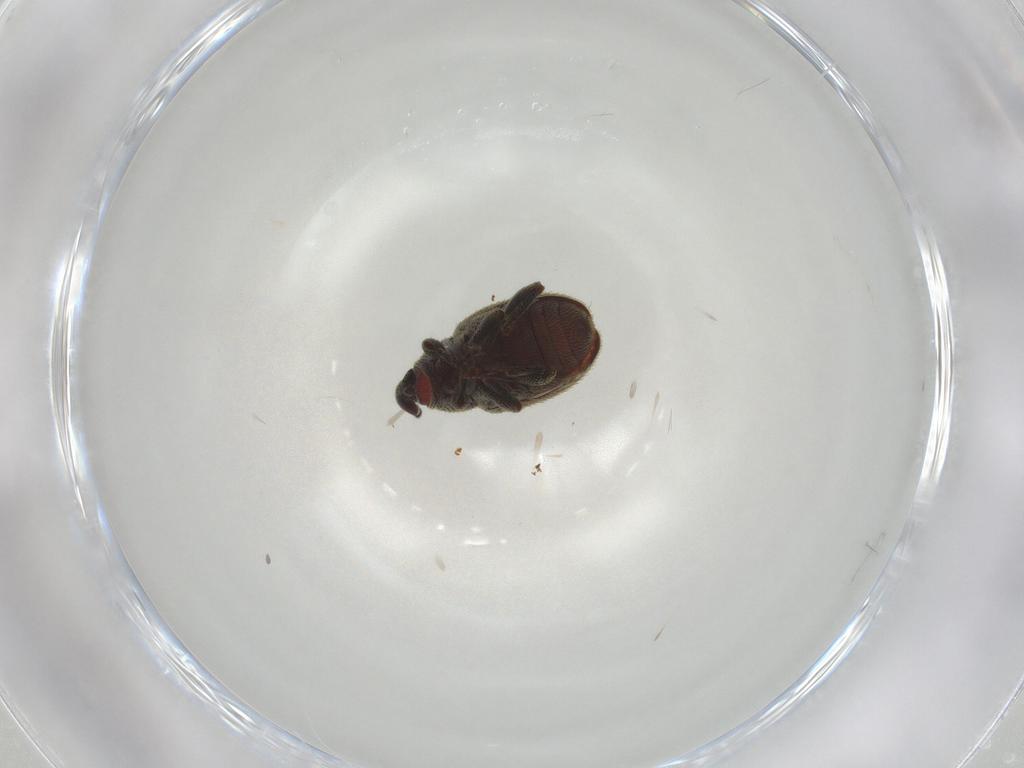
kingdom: Animalia
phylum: Arthropoda
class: Insecta
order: Coleoptera
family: Curculionidae
